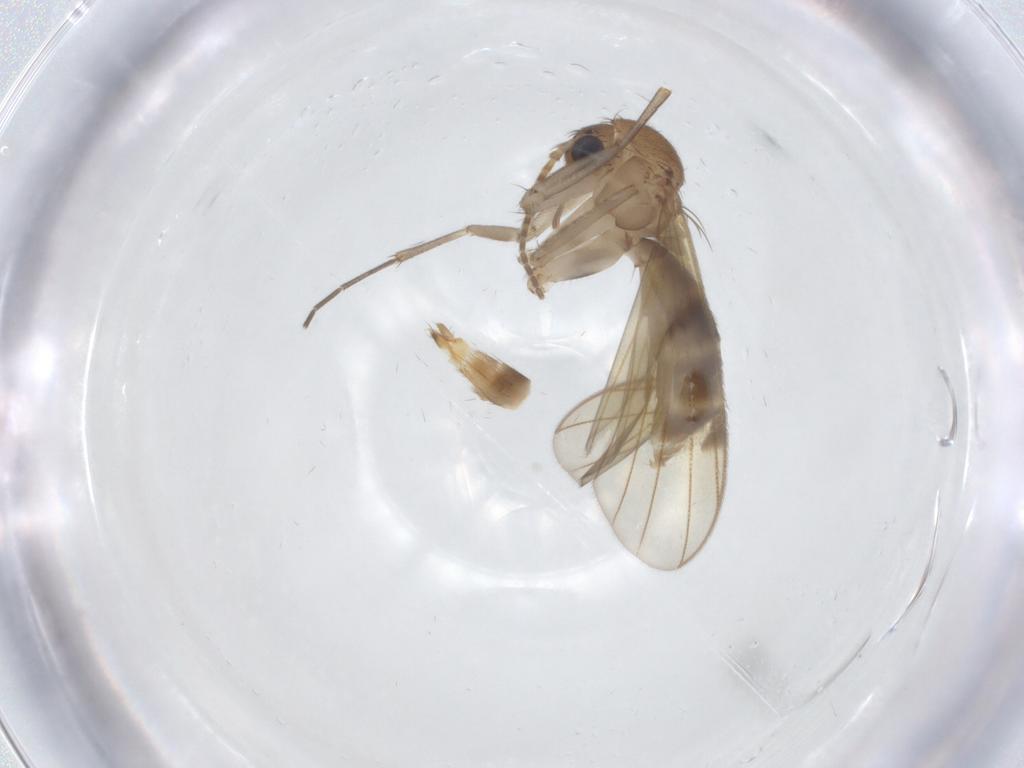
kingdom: Animalia
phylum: Arthropoda
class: Insecta
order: Diptera
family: Mycetophilidae
